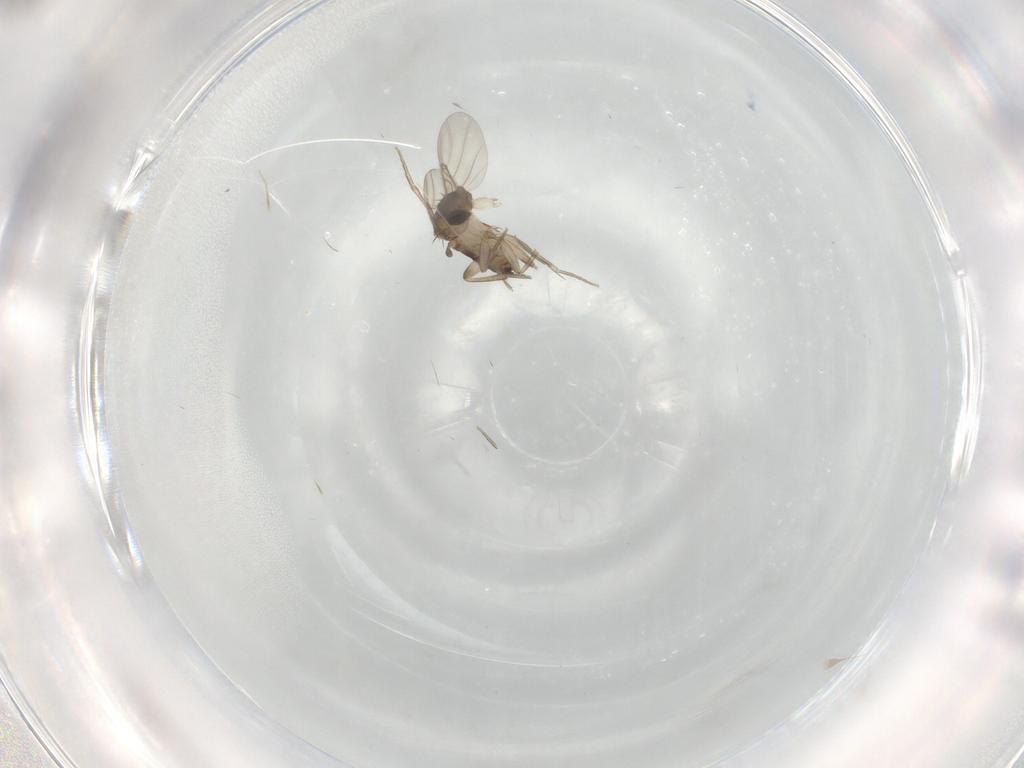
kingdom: Animalia
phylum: Arthropoda
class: Insecta
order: Diptera
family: Phoridae
